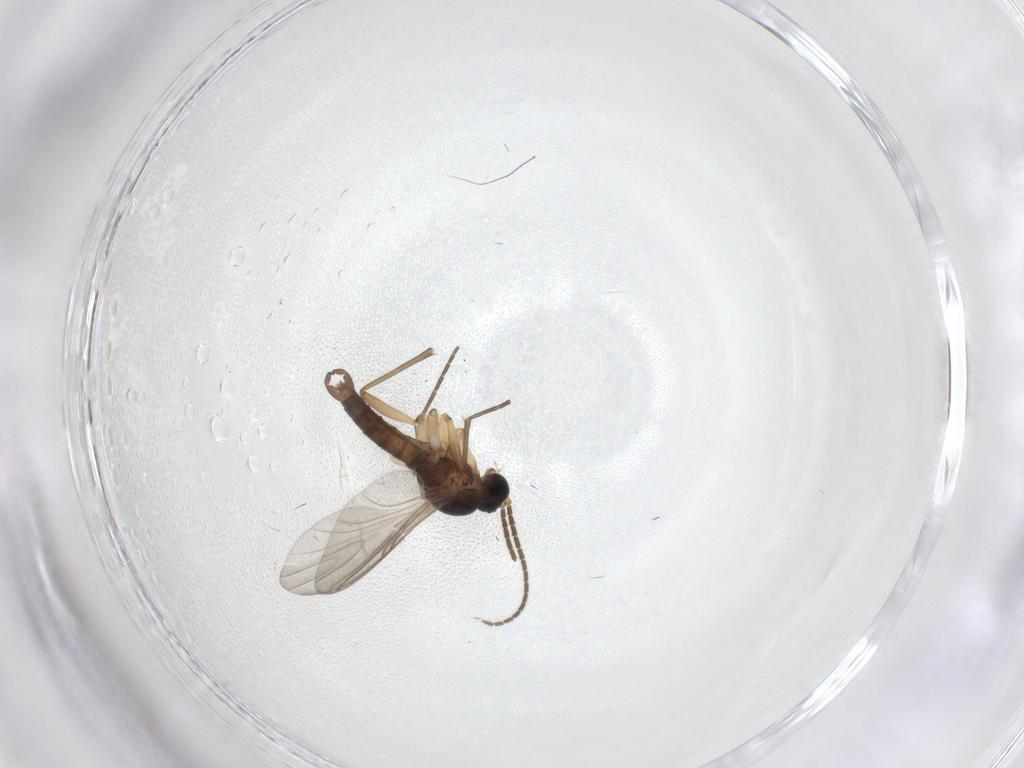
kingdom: Animalia
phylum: Arthropoda
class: Insecta
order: Diptera
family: Sciaridae
